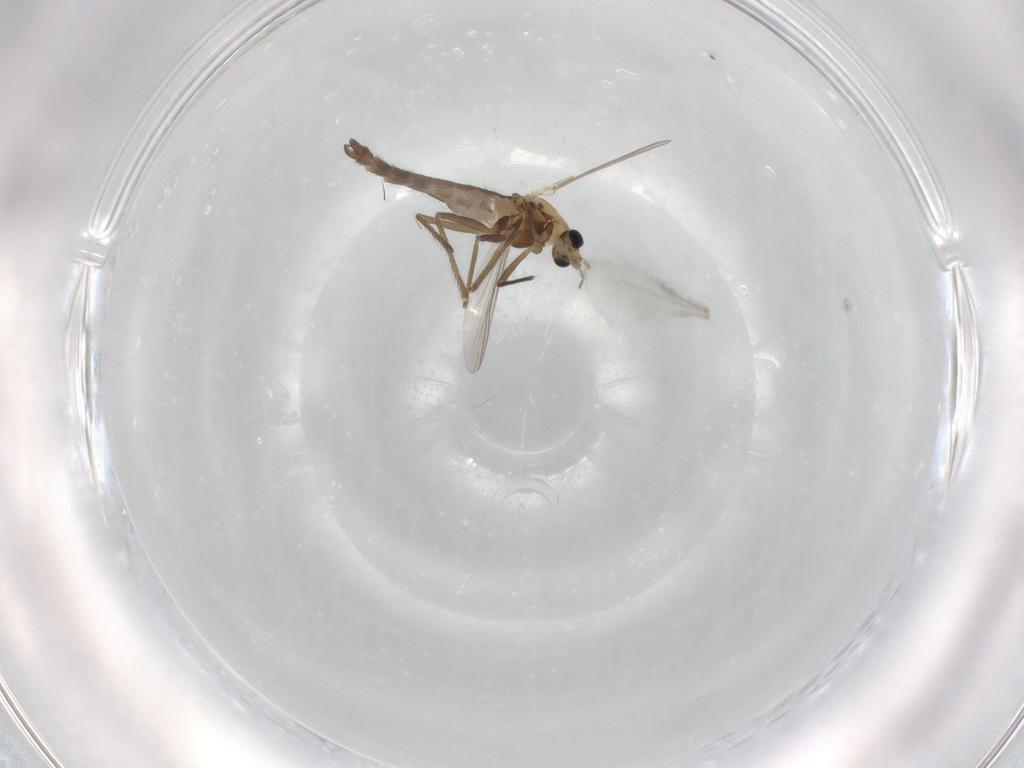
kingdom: Animalia
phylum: Arthropoda
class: Insecta
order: Diptera
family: Chironomidae
